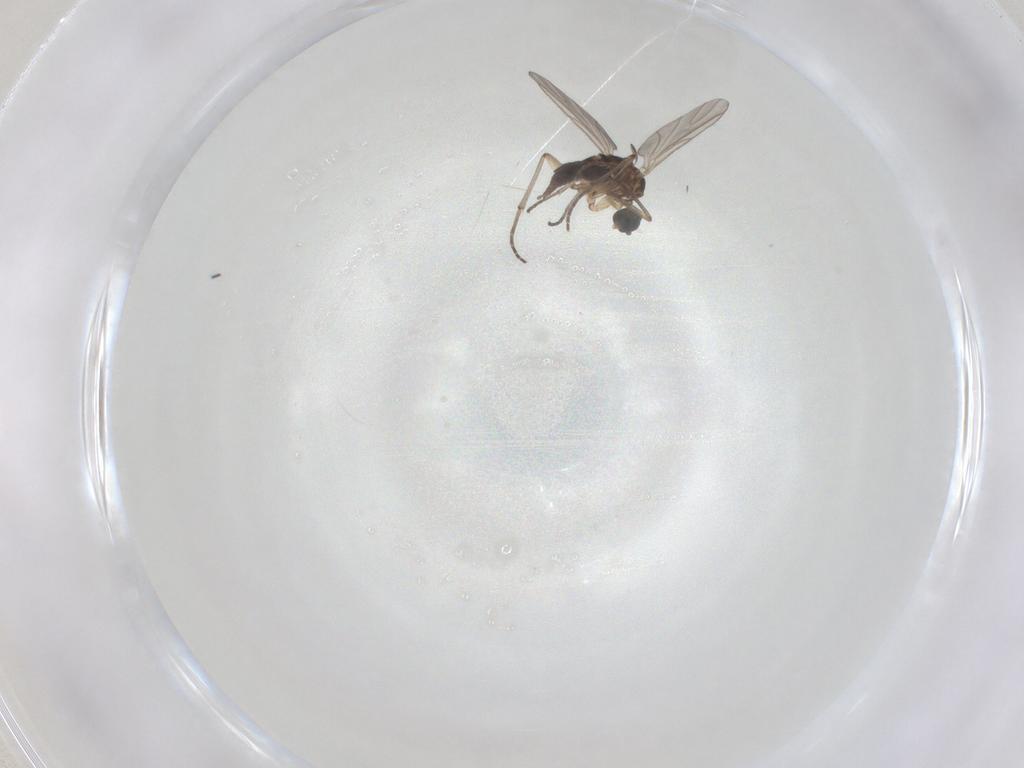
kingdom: Animalia
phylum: Arthropoda
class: Insecta
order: Diptera
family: Sciaridae
